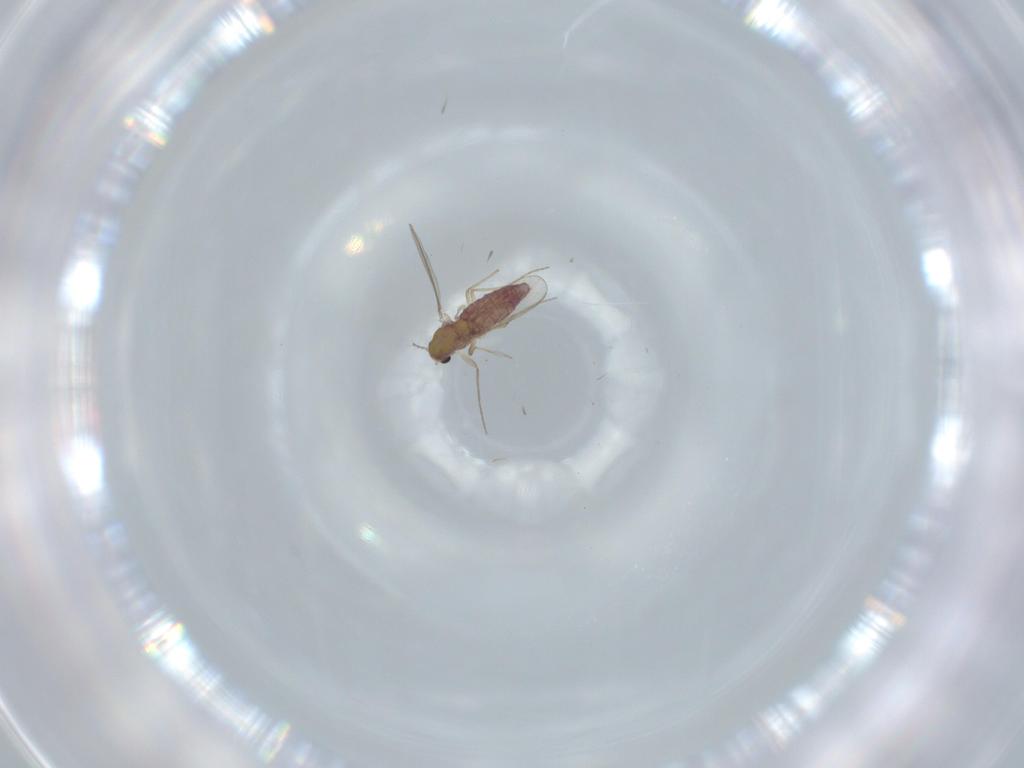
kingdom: Animalia
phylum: Arthropoda
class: Insecta
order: Diptera
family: Chironomidae
